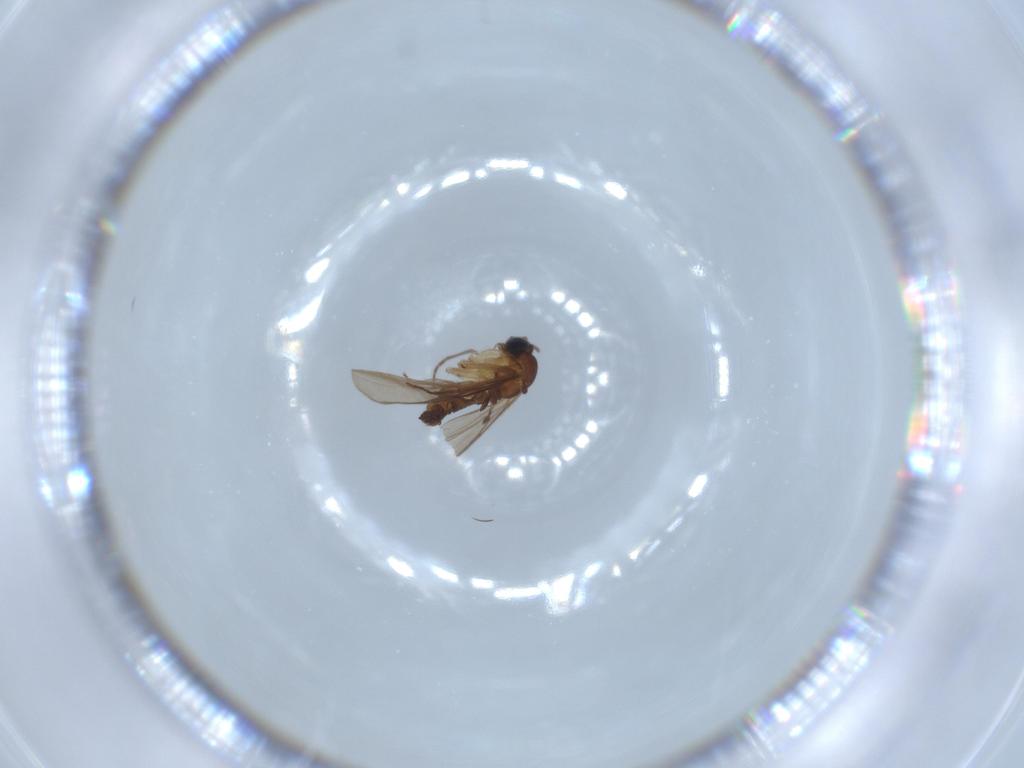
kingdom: Animalia
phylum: Arthropoda
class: Insecta
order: Diptera
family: Sciaridae
